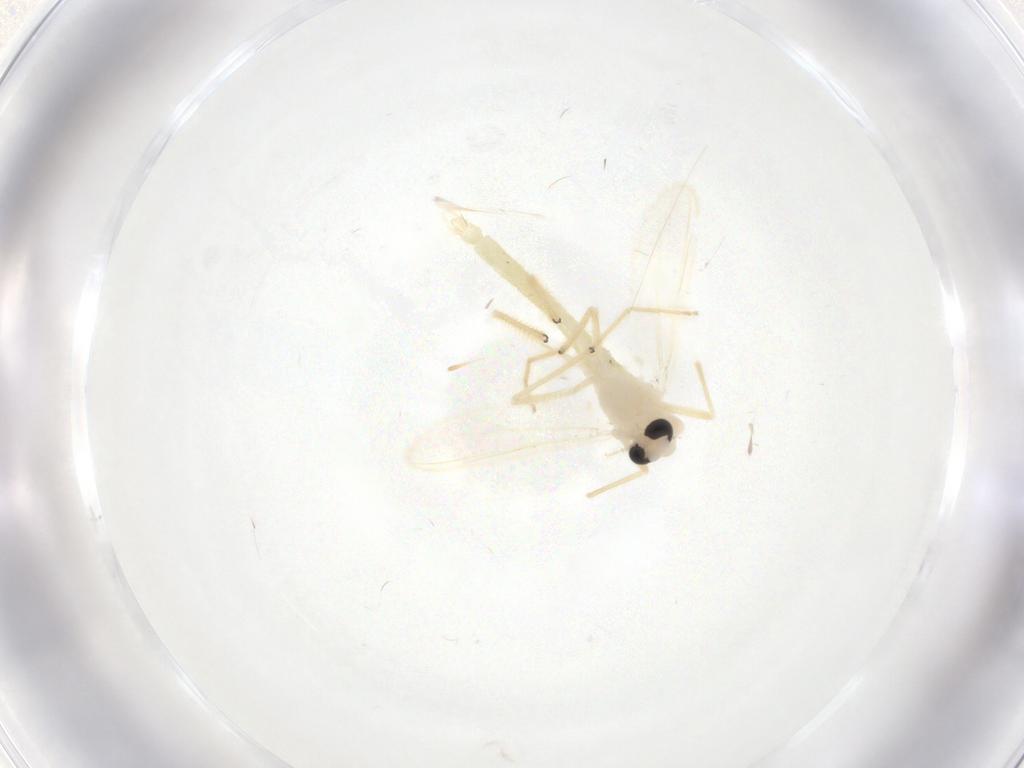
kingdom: Animalia
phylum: Arthropoda
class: Insecta
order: Diptera
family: Chironomidae
